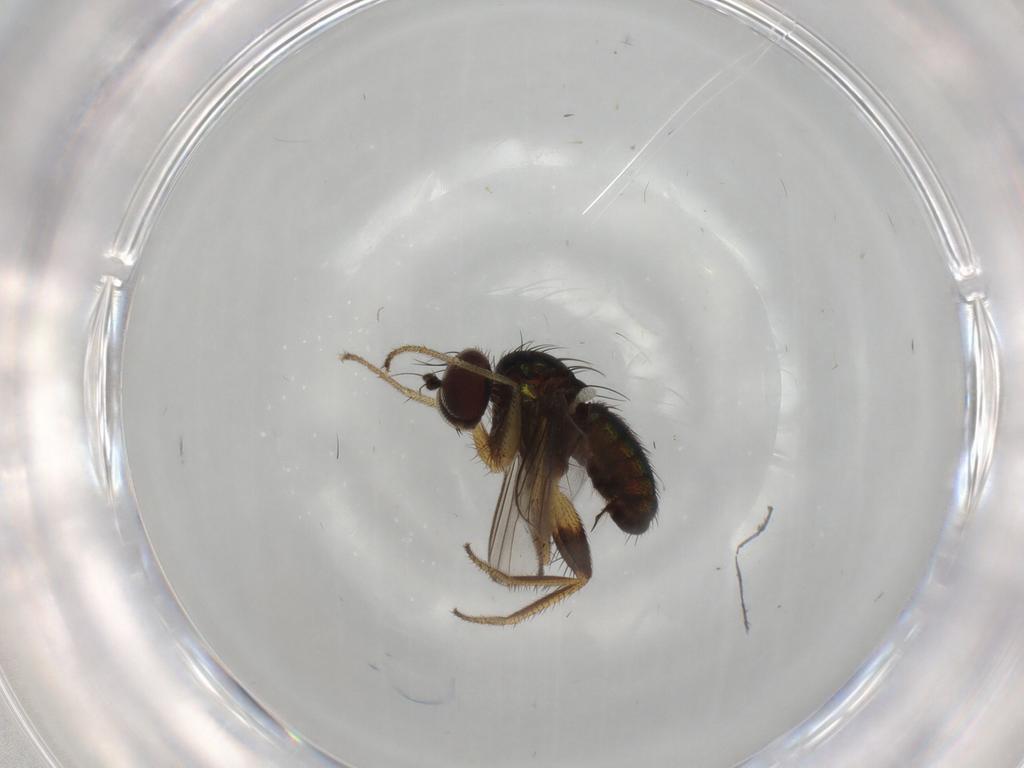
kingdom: Animalia
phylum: Arthropoda
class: Insecta
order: Diptera
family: Dolichopodidae
